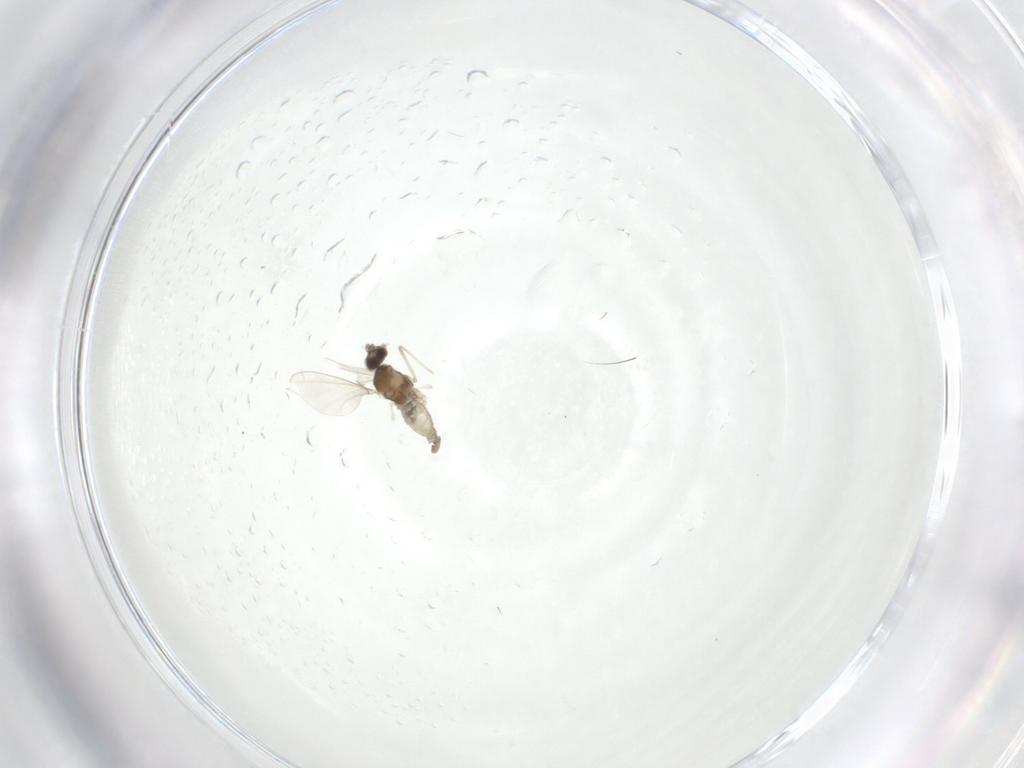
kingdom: Animalia
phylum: Arthropoda
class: Insecta
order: Diptera
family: Cecidomyiidae
